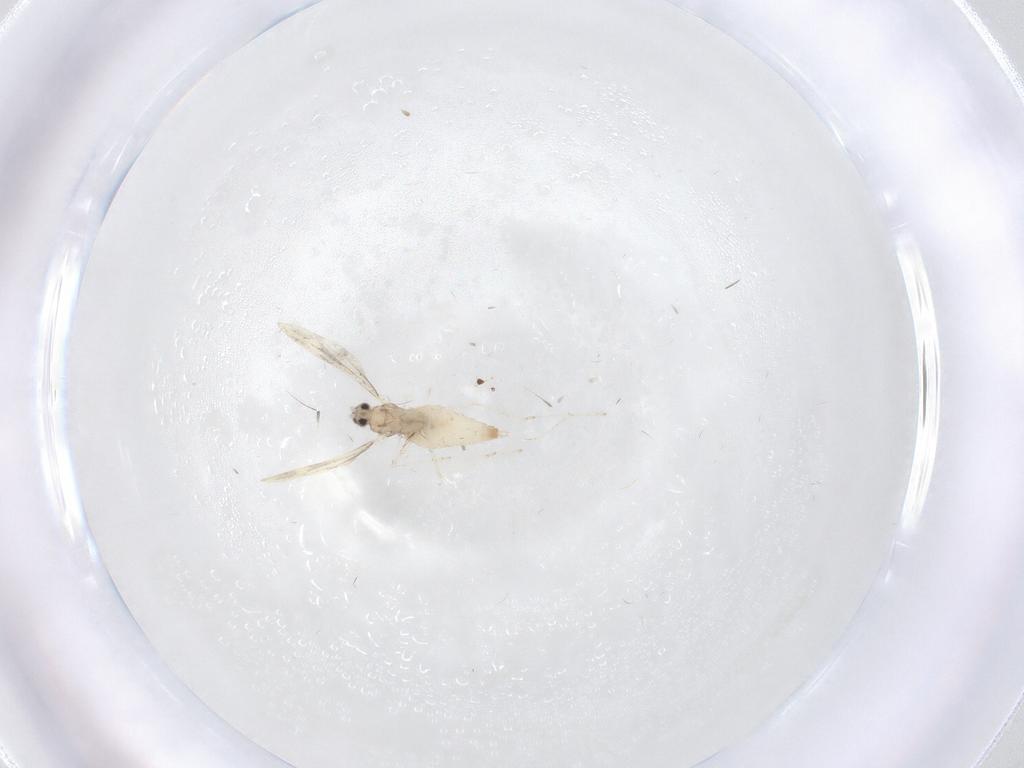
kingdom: Animalia
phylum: Arthropoda
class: Insecta
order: Diptera
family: Cecidomyiidae
